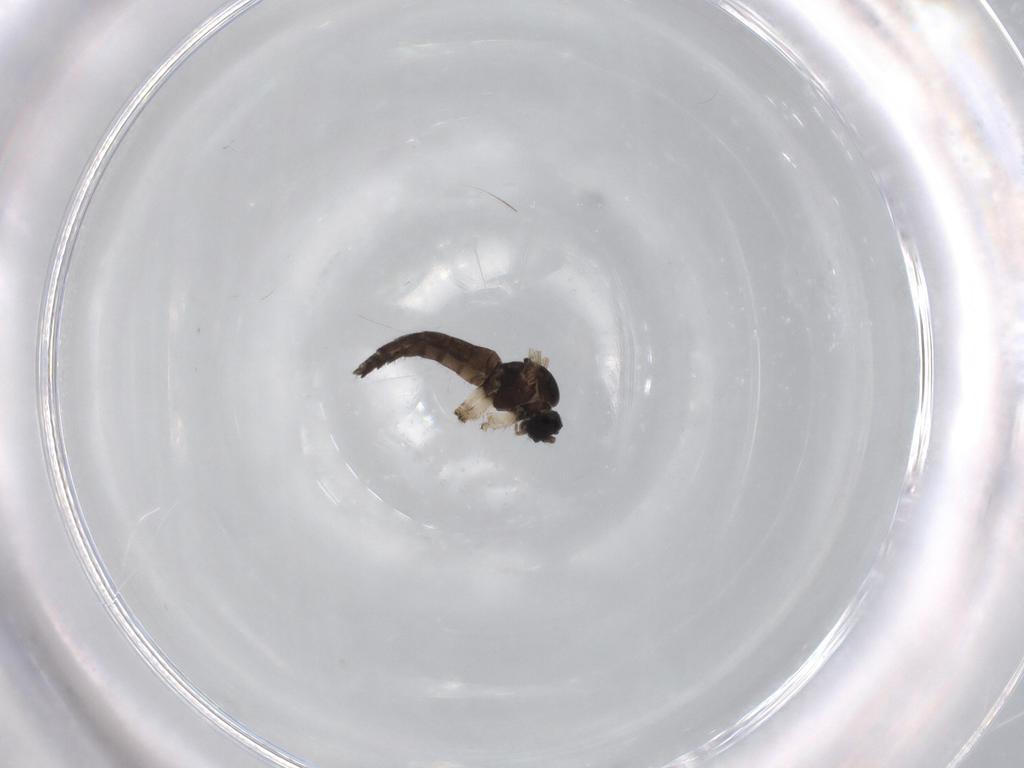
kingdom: Animalia
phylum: Arthropoda
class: Insecta
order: Diptera
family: Sciaridae
